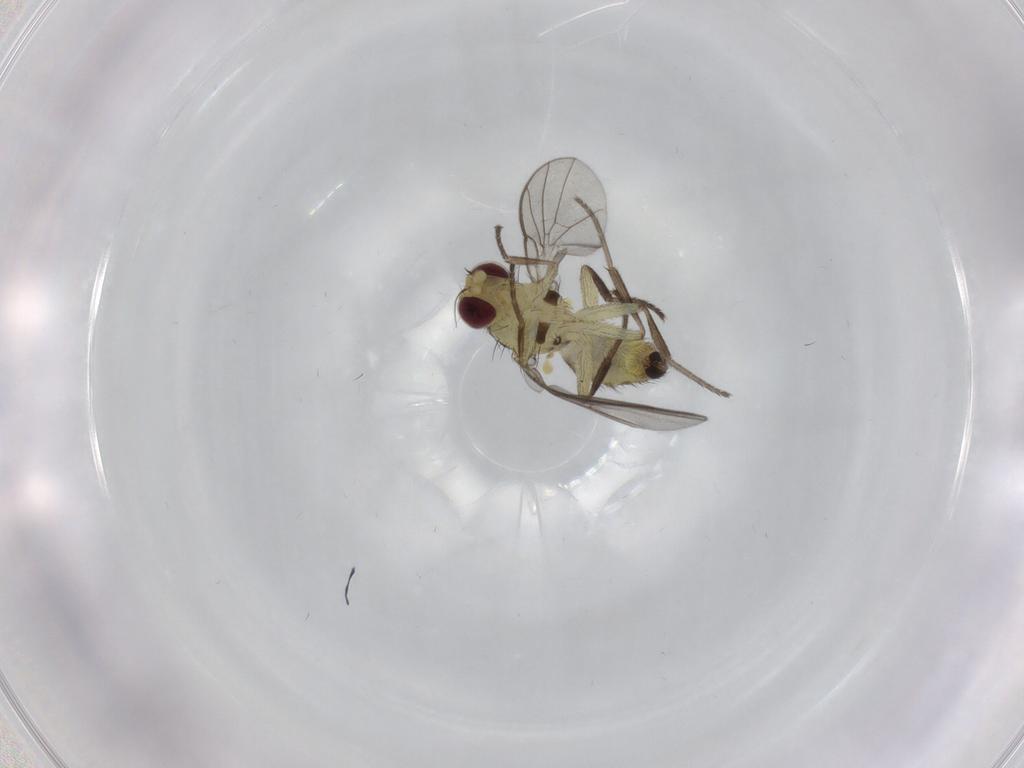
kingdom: Animalia
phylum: Arthropoda
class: Insecta
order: Diptera
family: Agromyzidae
